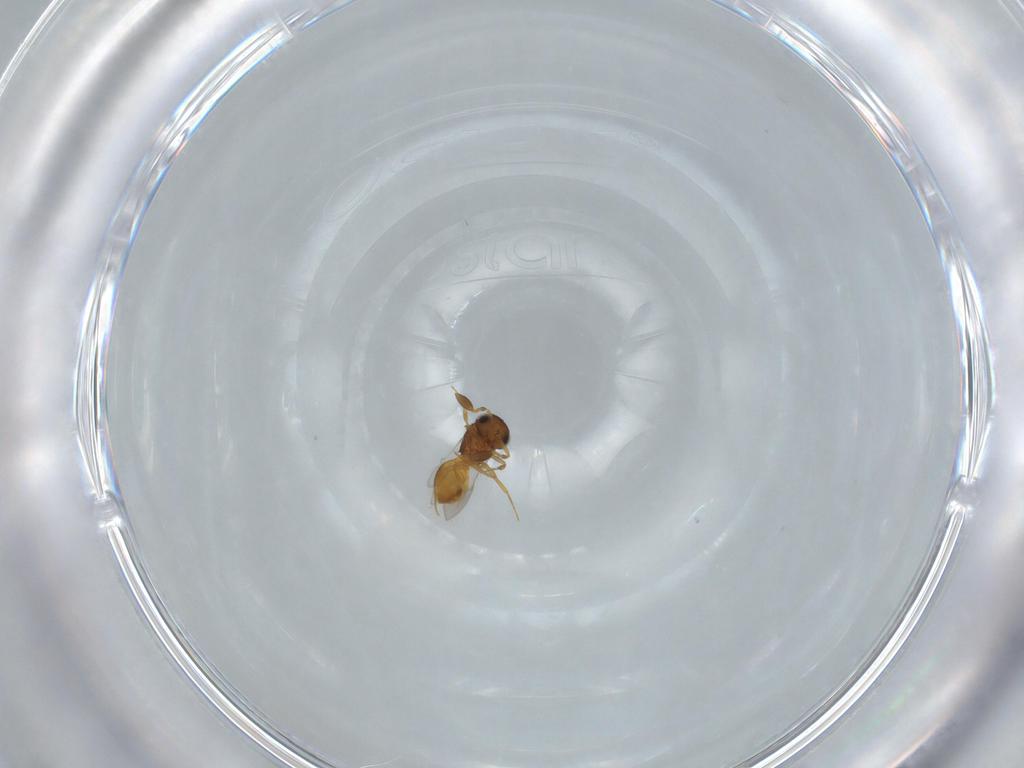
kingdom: Animalia
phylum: Arthropoda
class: Insecta
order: Hymenoptera
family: Scelionidae
